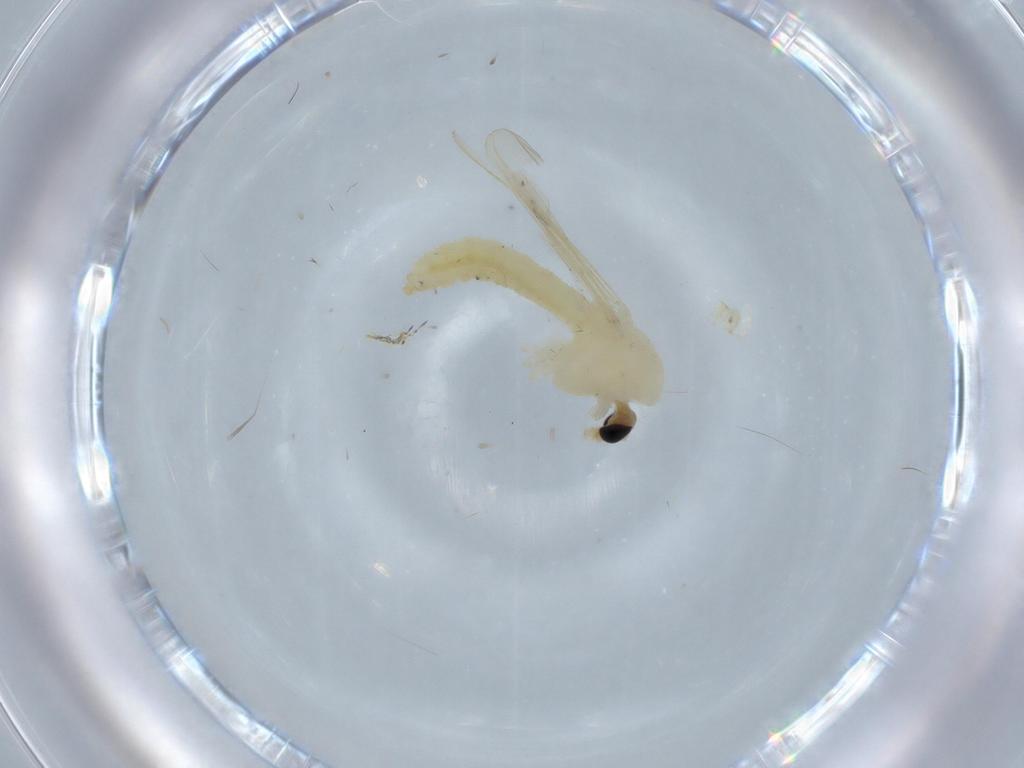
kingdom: Animalia
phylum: Arthropoda
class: Insecta
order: Diptera
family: Chironomidae
